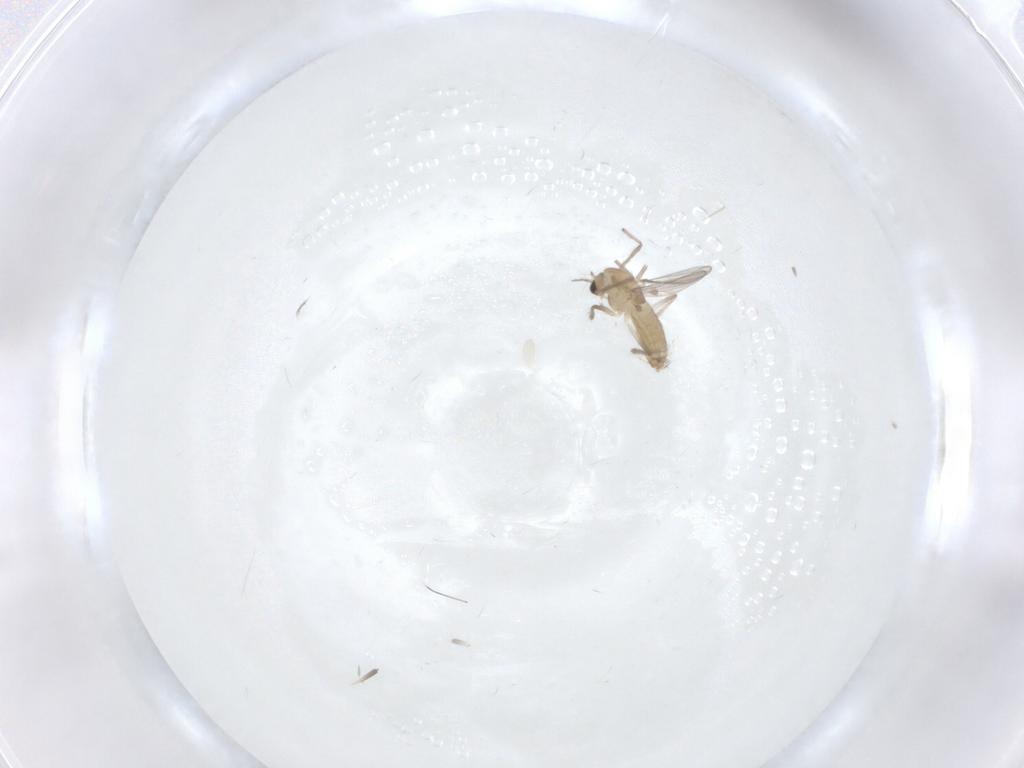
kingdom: Animalia
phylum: Arthropoda
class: Insecta
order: Diptera
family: Chironomidae
